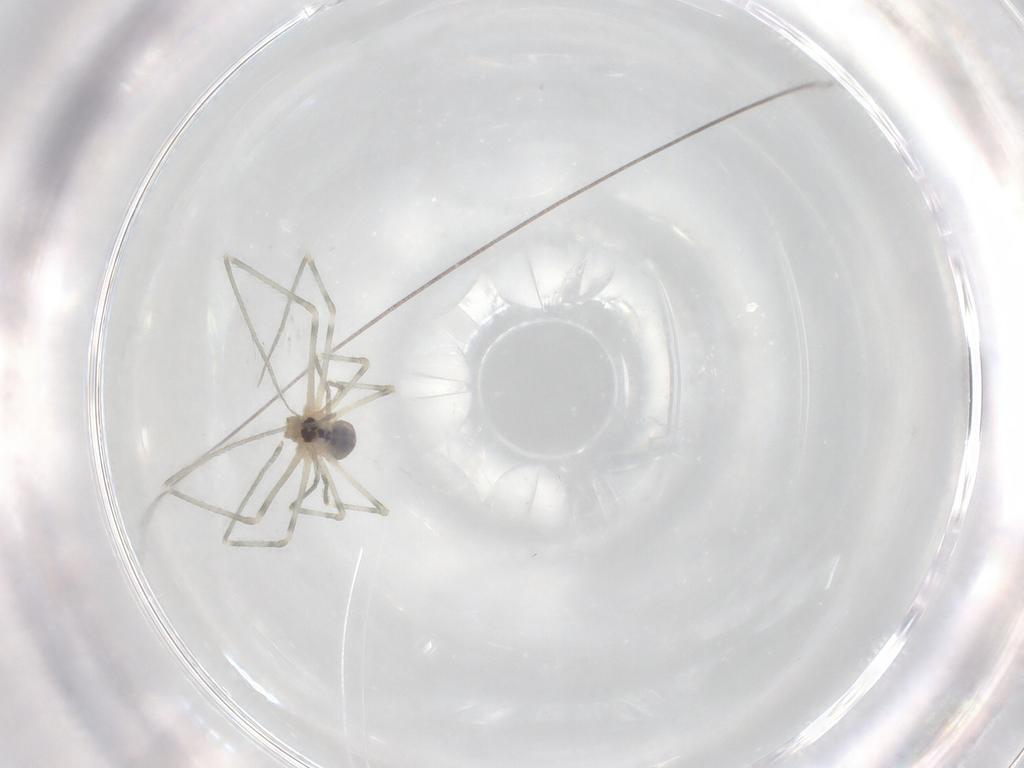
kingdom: Animalia
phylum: Arthropoda
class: Arachnida
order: Araneae
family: Pholcidae
